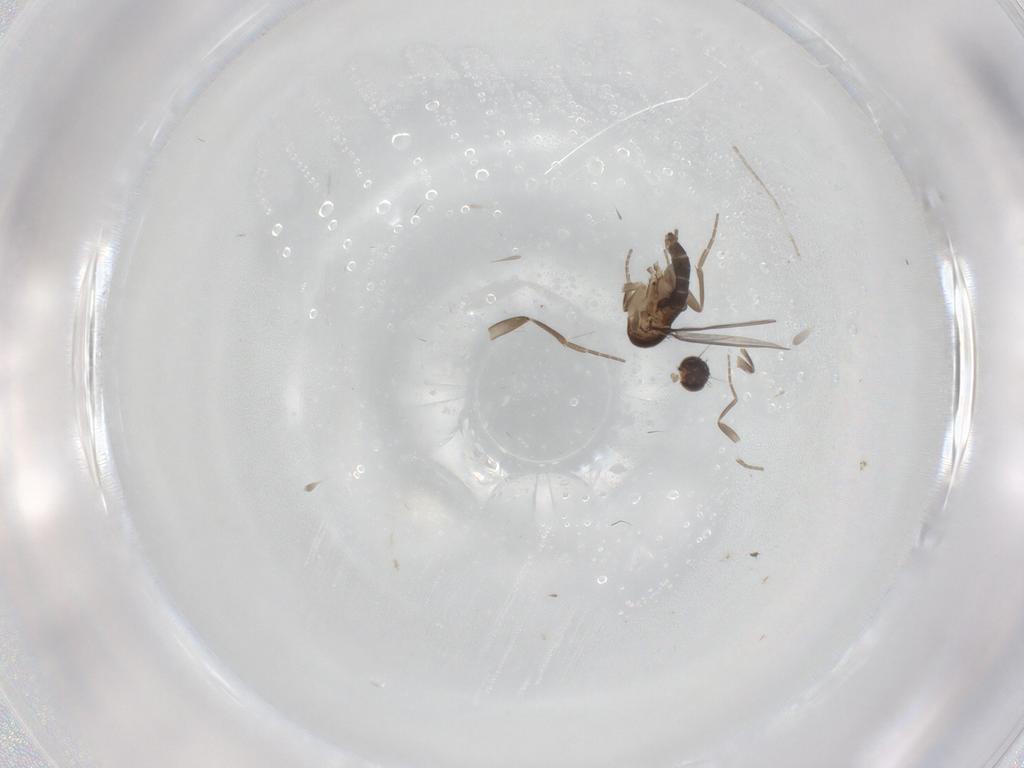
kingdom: Animalia
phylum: Arthropoda
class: Insecta
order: Diptera
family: Phoridae
